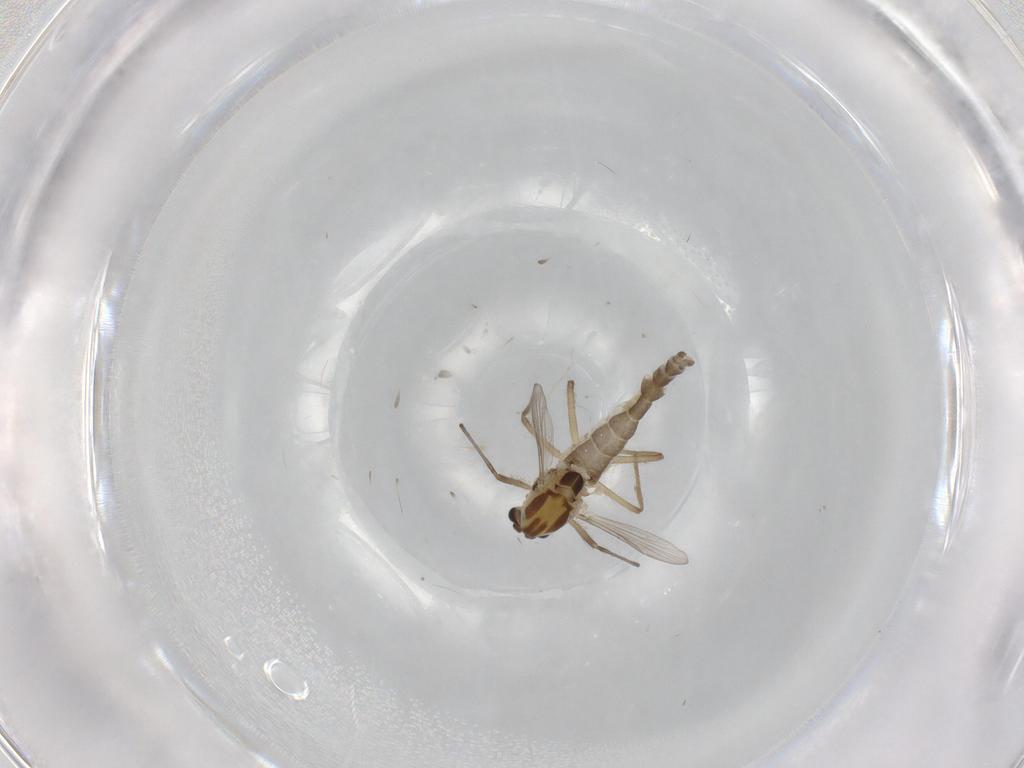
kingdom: Animalia
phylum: Arthropoda
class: Insecta
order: Diptera
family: Chironomidae
